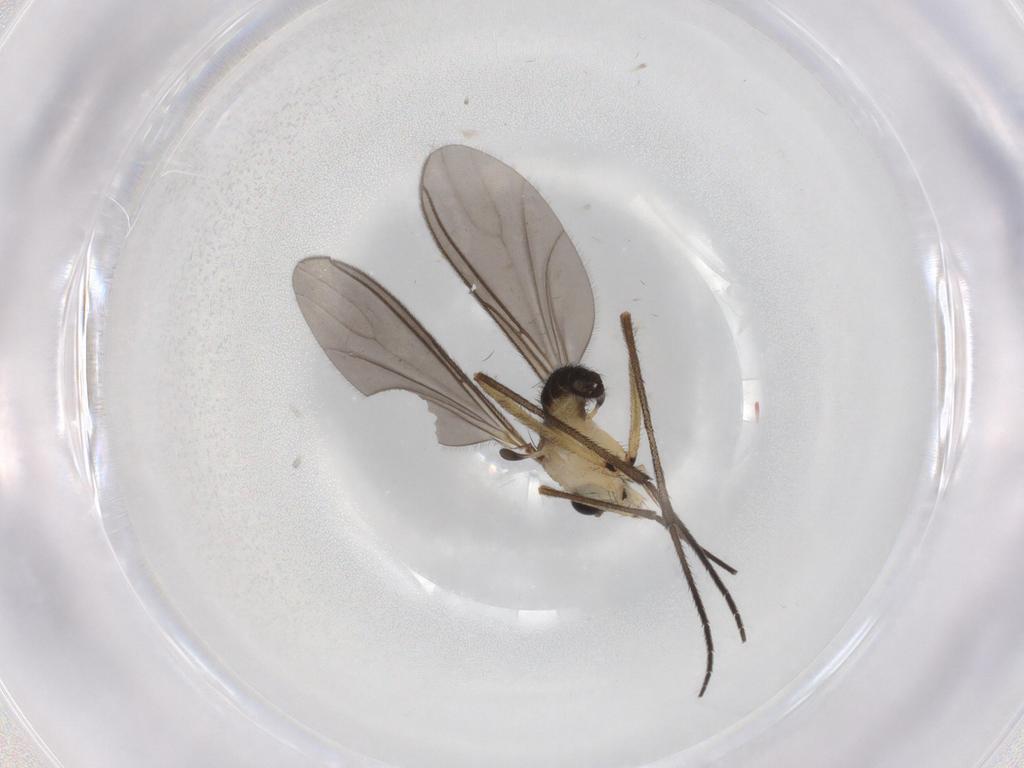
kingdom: Animalia
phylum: Arthropoda
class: Insecta
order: Diptera
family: Sciaridae
